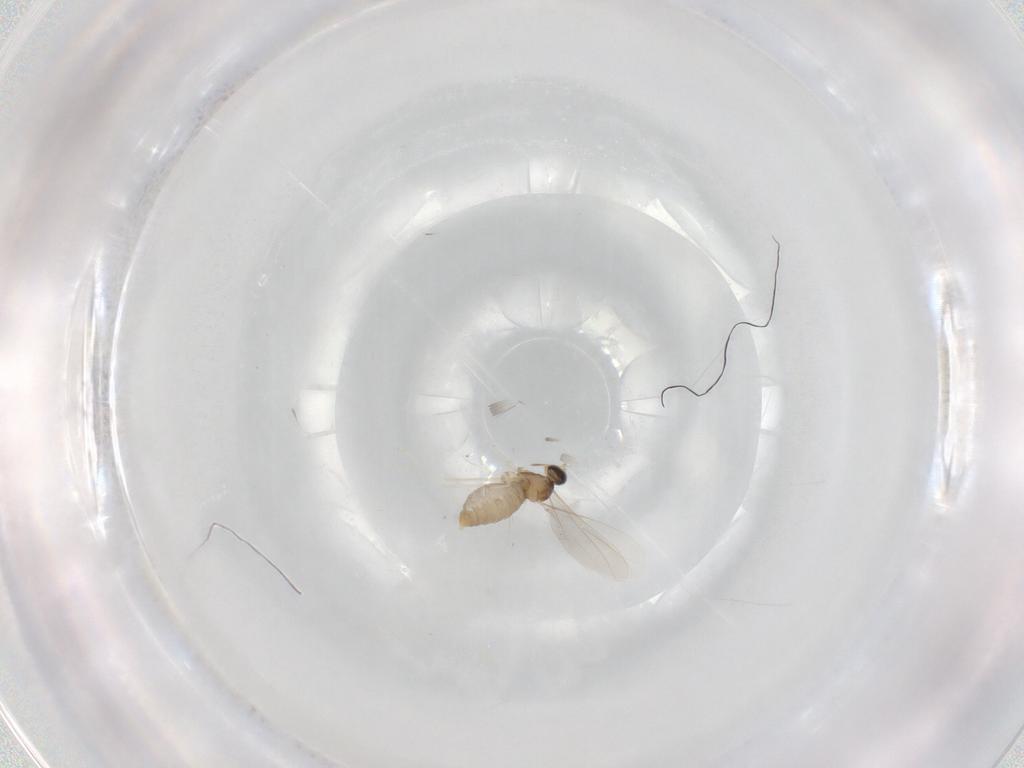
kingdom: Animalia
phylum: Arthropoda
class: Insecta
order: Diptera
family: Cecidomyiidae
